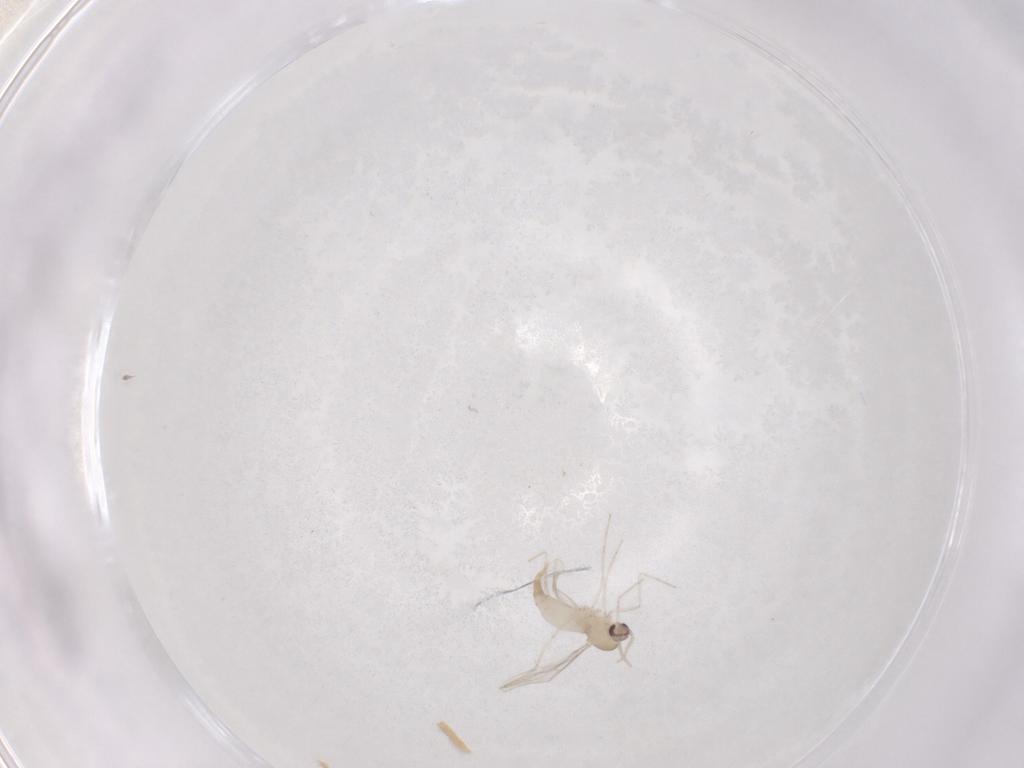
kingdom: Animalia
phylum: Arthropoda
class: Insecta
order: Diptera
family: Cecidomyiidae
